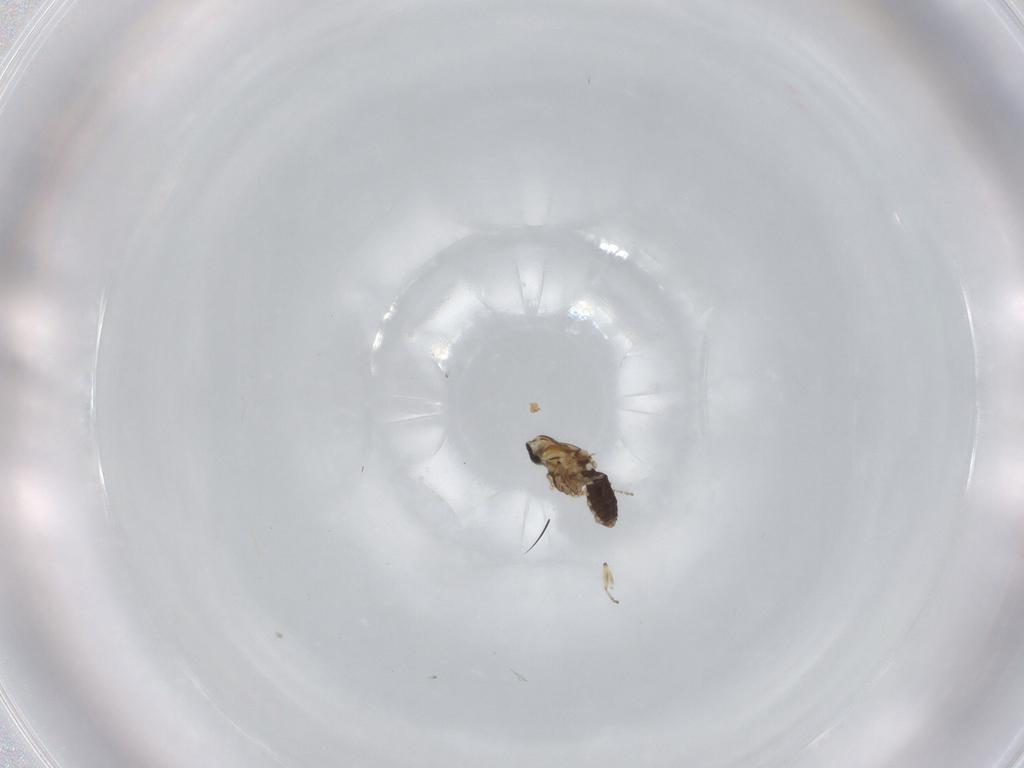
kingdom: Animalia
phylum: Arthropoda
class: Insecta
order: Diptera
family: Ceratopogonidae
